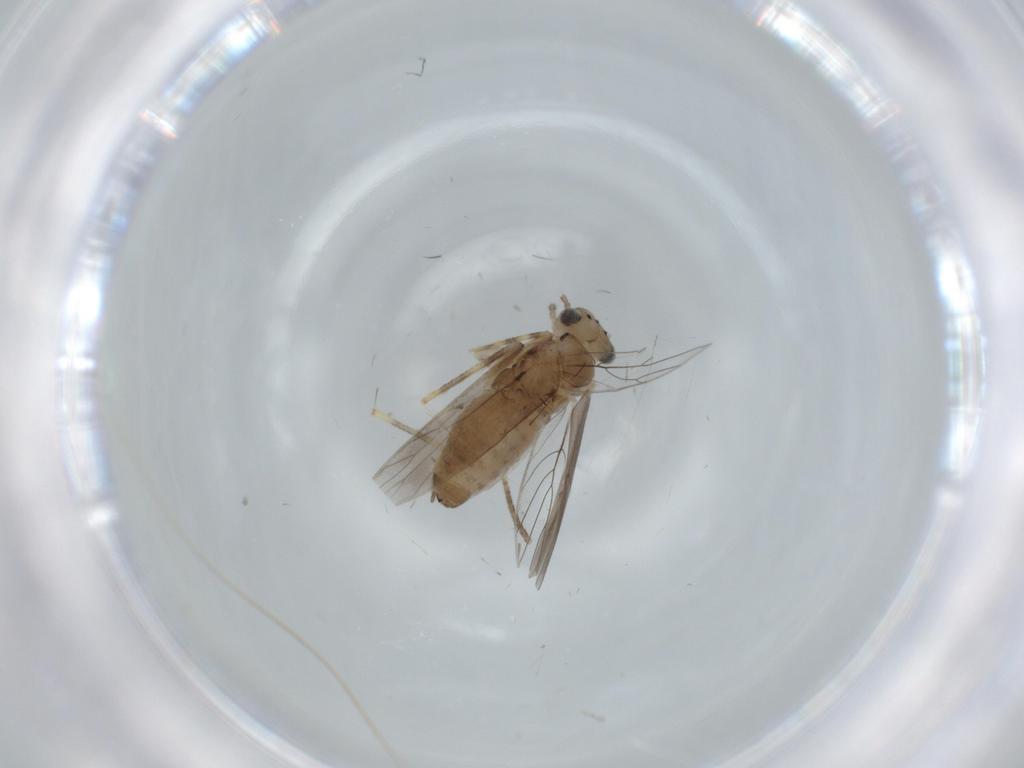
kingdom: Animalia
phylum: Arthropoda
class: Insecta
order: Psocodea
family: Lepidopsocidae
